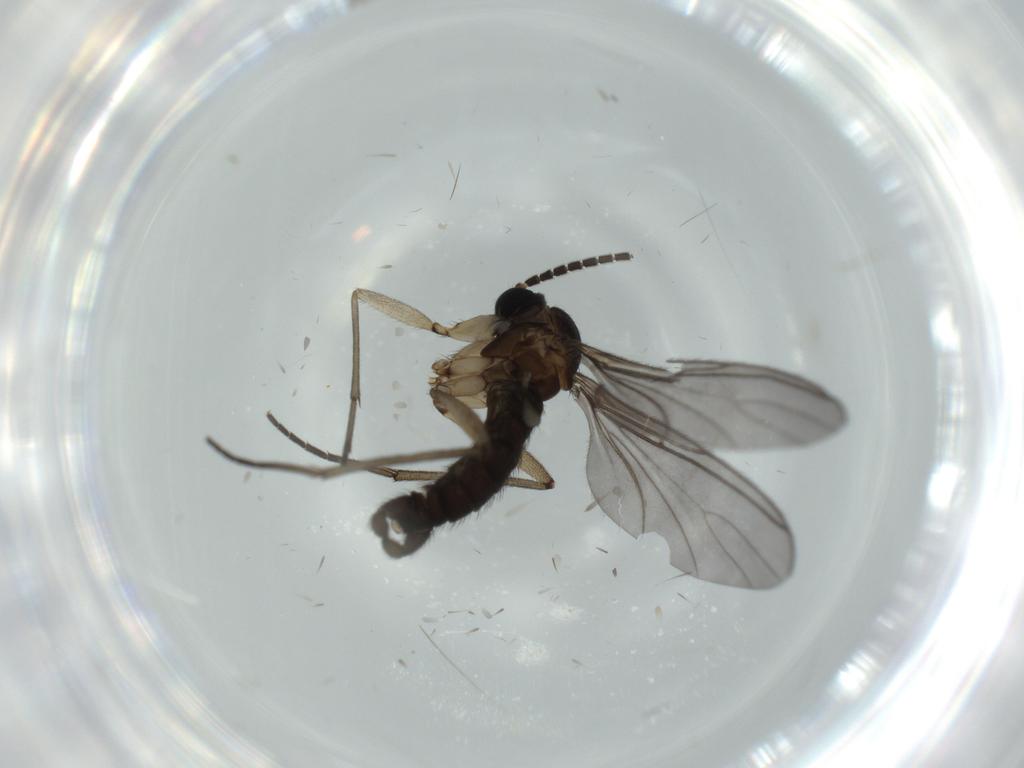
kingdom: Animalia
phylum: Arthropoda
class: Insecta
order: Diptera
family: Sciaridae
